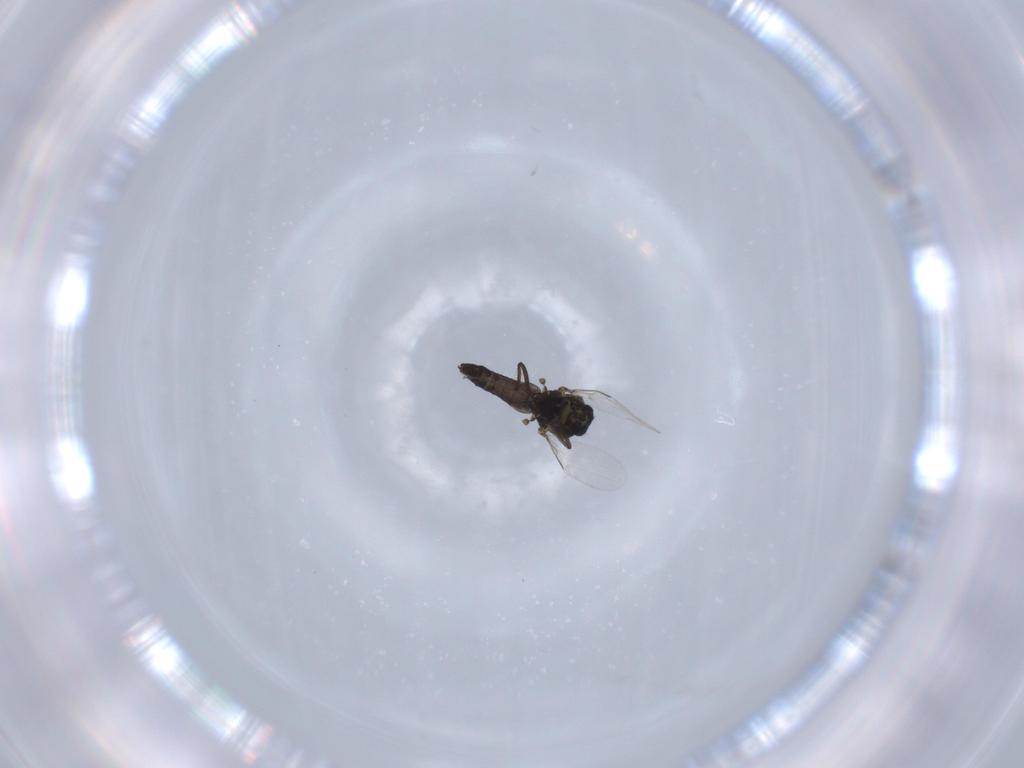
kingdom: Animalia
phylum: Arthropoda
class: Insecta
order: Diptera
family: Ceratopogonidae
